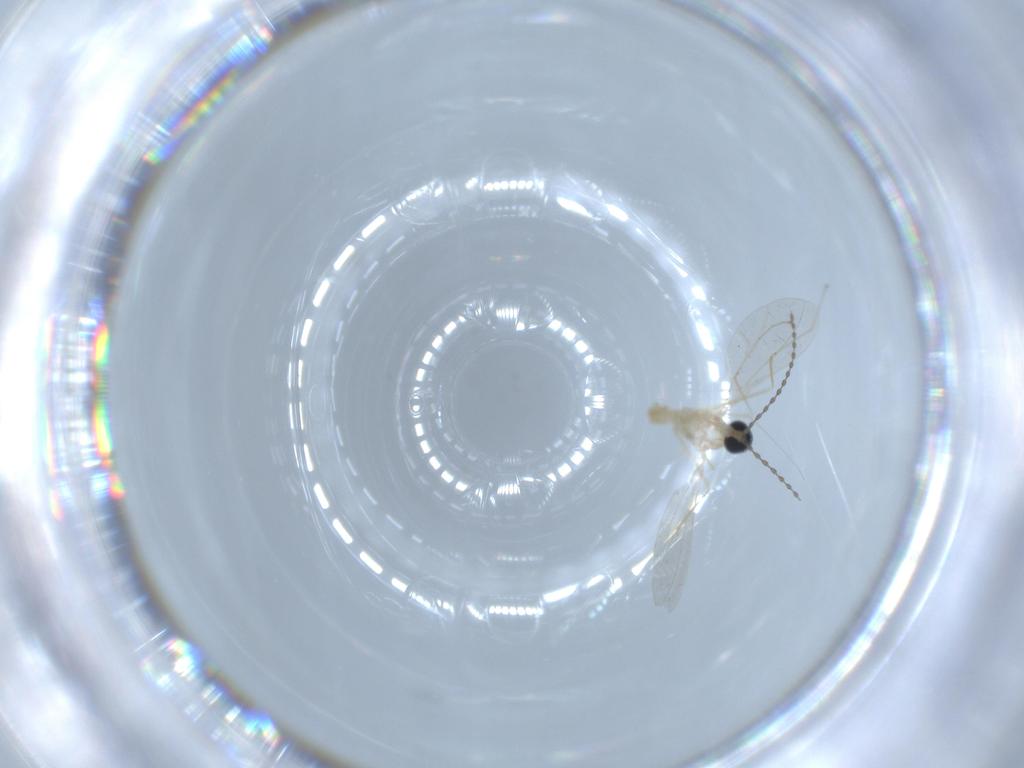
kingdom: Animalia
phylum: Arthropoda
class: Insecta
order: Diptera
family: Cecidomyiidae
